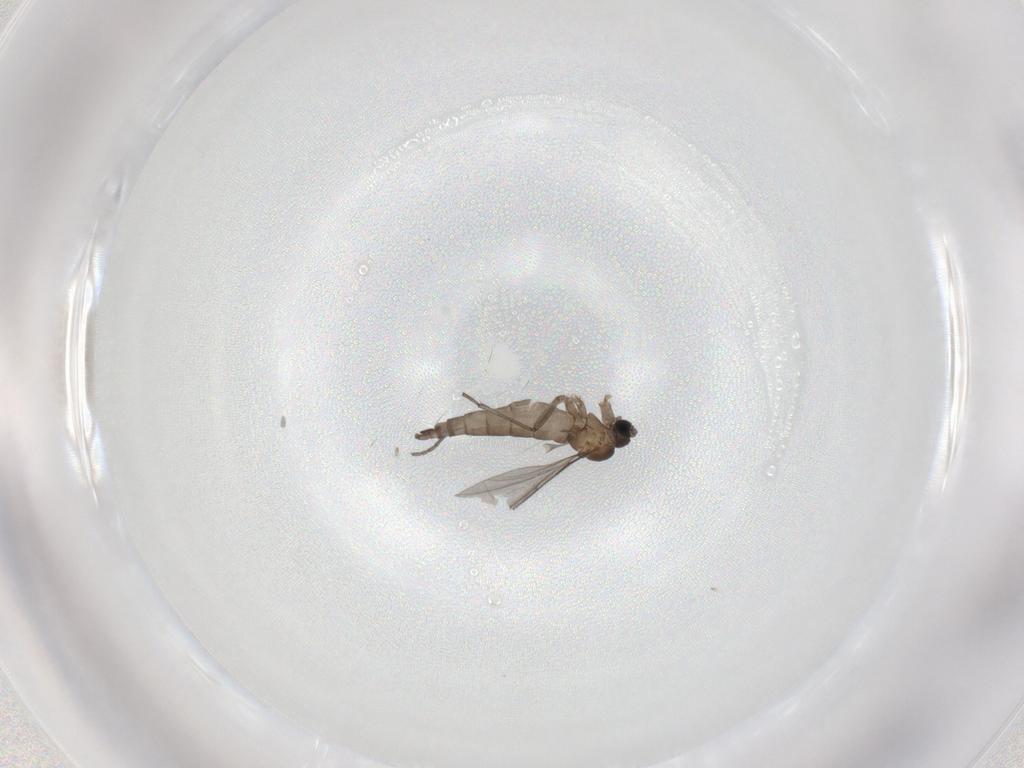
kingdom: Animalia
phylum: Arthropoda
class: Insecta
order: Diptera
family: Sciaridae
